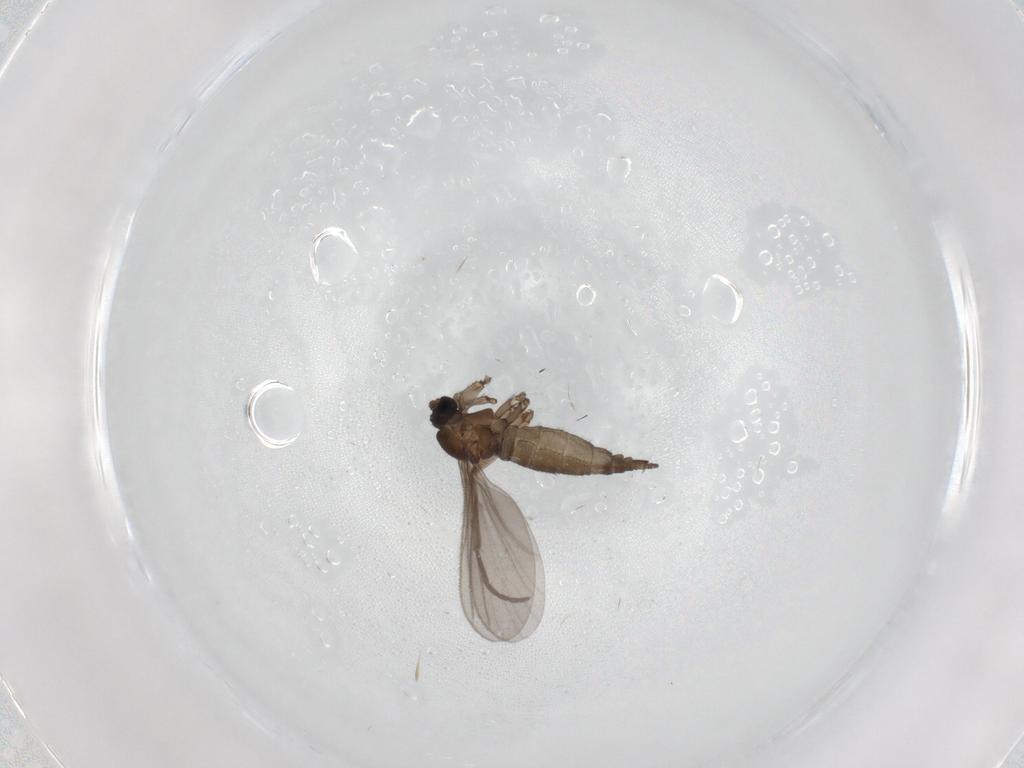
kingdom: Animalia
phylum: Arthropoda
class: Insecta
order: Diptera
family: Sciaridae
